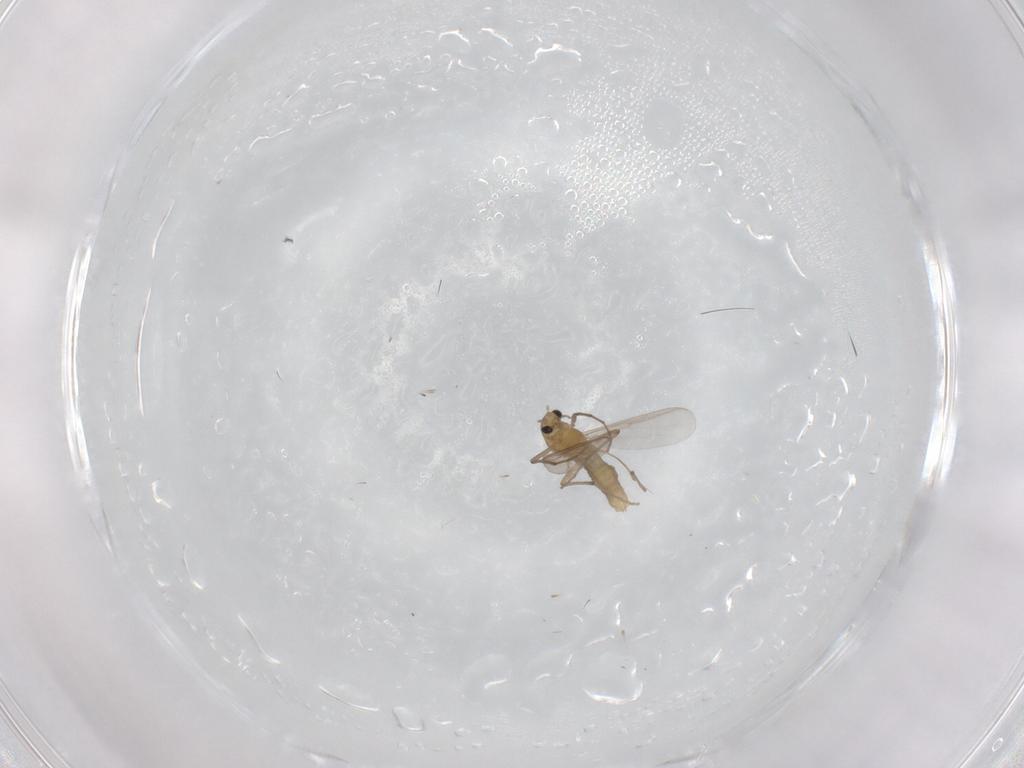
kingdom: Animalia
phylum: Arthropoda
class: Insecta
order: Diptera
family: Chironomidae
